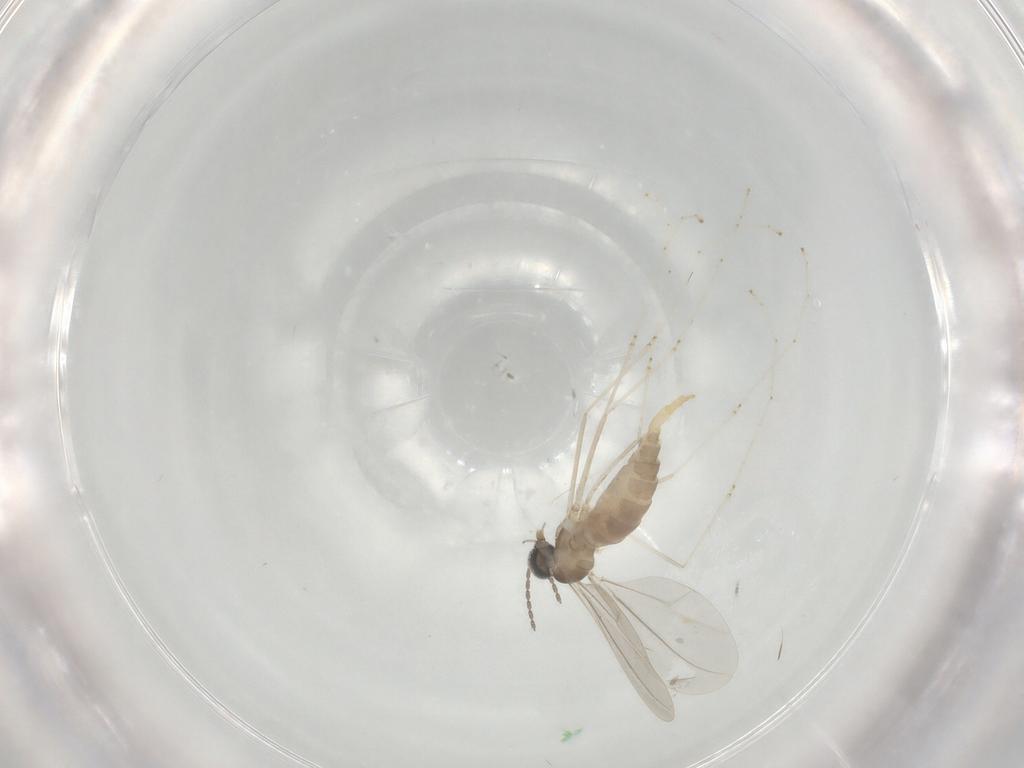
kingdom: Animalia
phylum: Arthropoda
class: Insecta
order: Diptera
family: Cecidomyiidae
